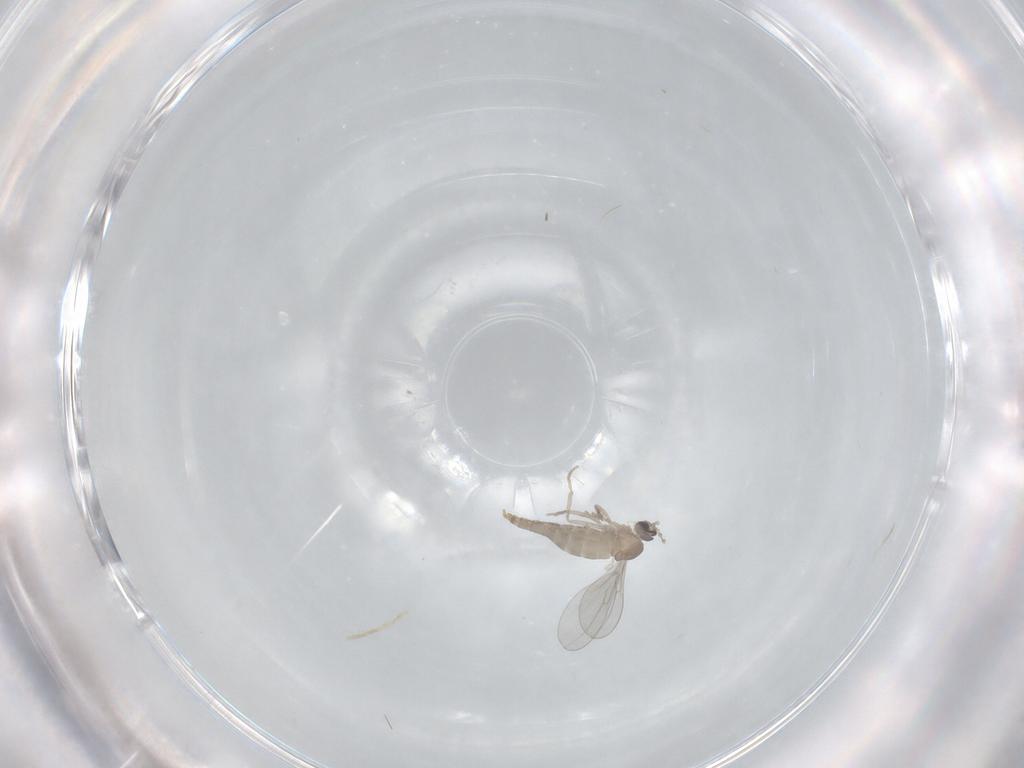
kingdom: Animalia
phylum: Arthropoda
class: Insecta
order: Diptera
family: Cecidomyiidae
